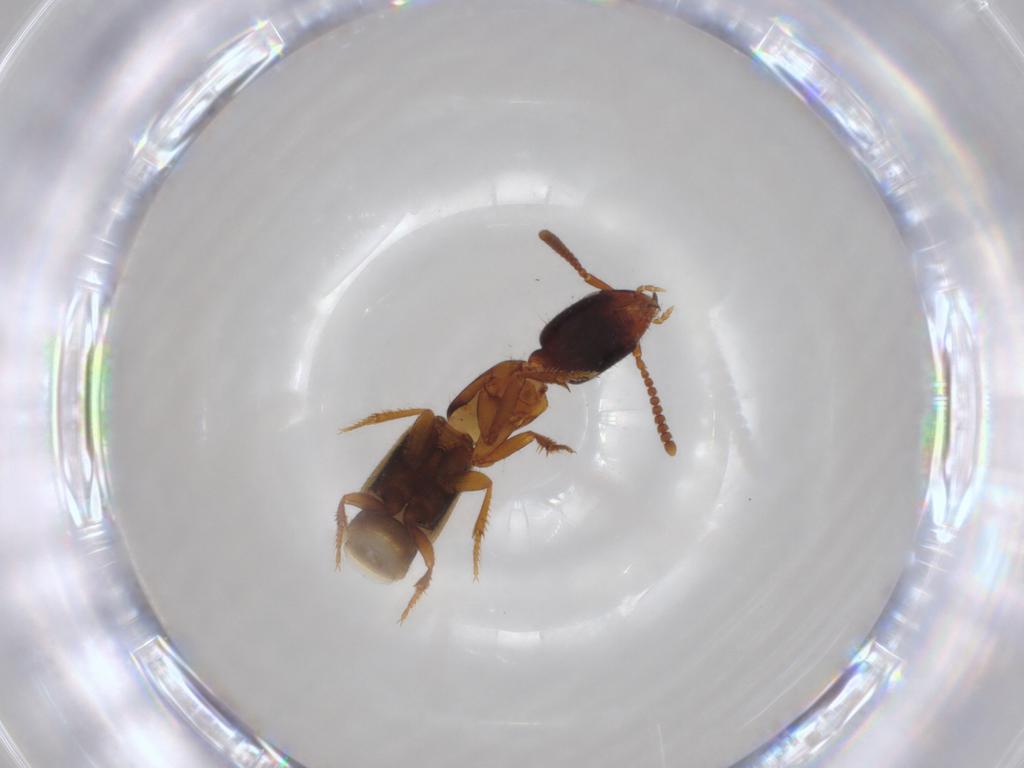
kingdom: Animalia
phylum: Arthropoda
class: Insecta
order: Coleoptera
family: Staphylinidae
